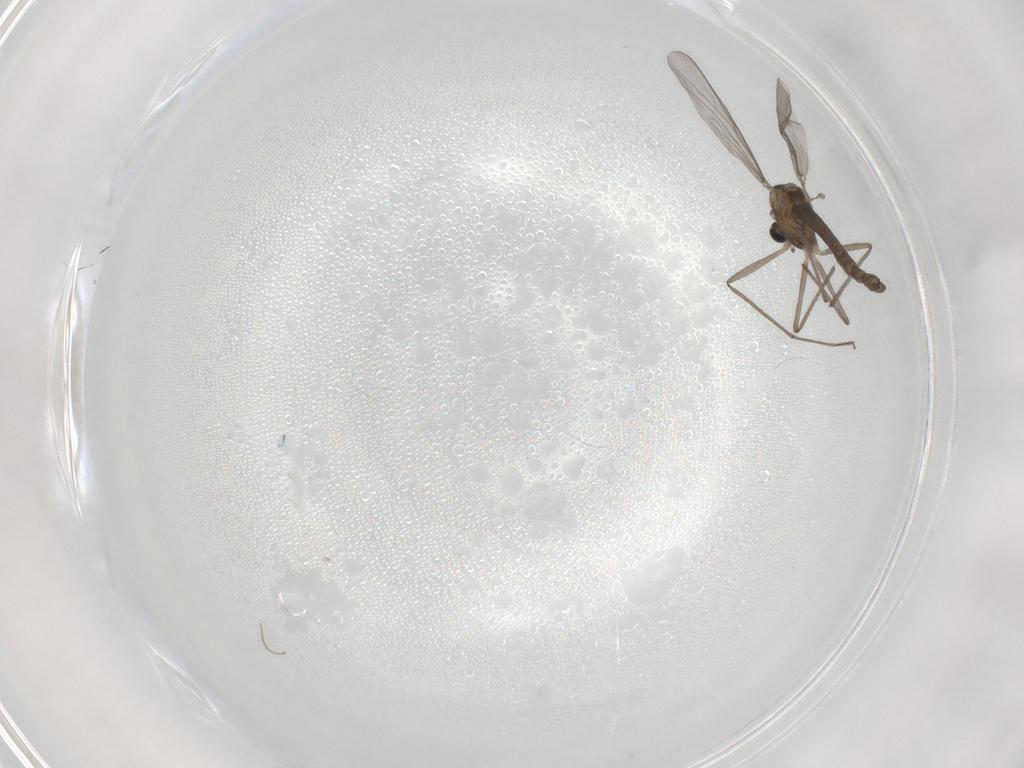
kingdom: Animalia
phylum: Arthropoda
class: Insecta
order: Diptera
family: Chironomidae
